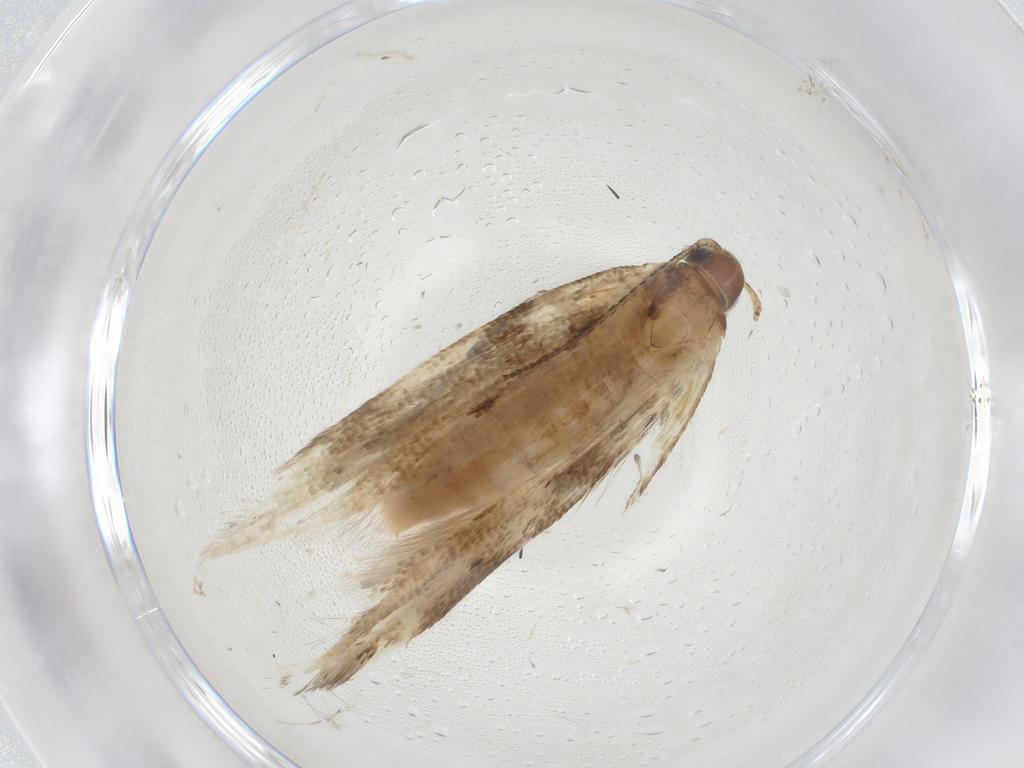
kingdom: Animalia
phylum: Arthropoda
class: Insecta
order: Lepidoptera
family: Gelechiidae
